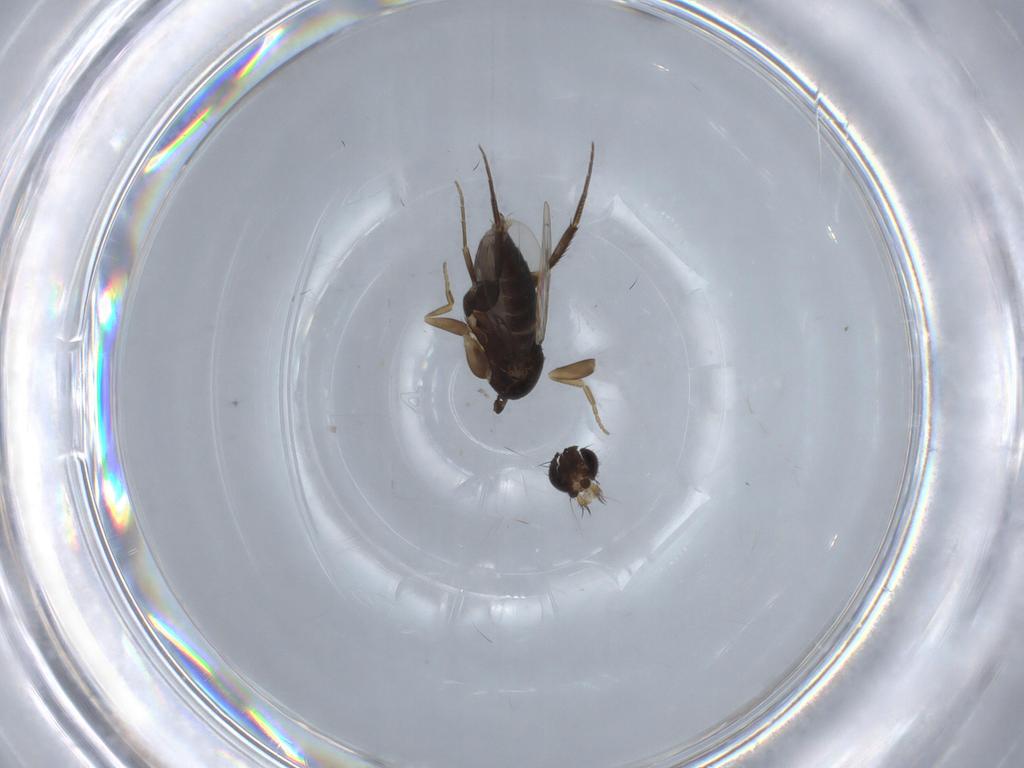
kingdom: Animalia
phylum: Arthropoda
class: Insecta
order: Diptera
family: Phoridae
